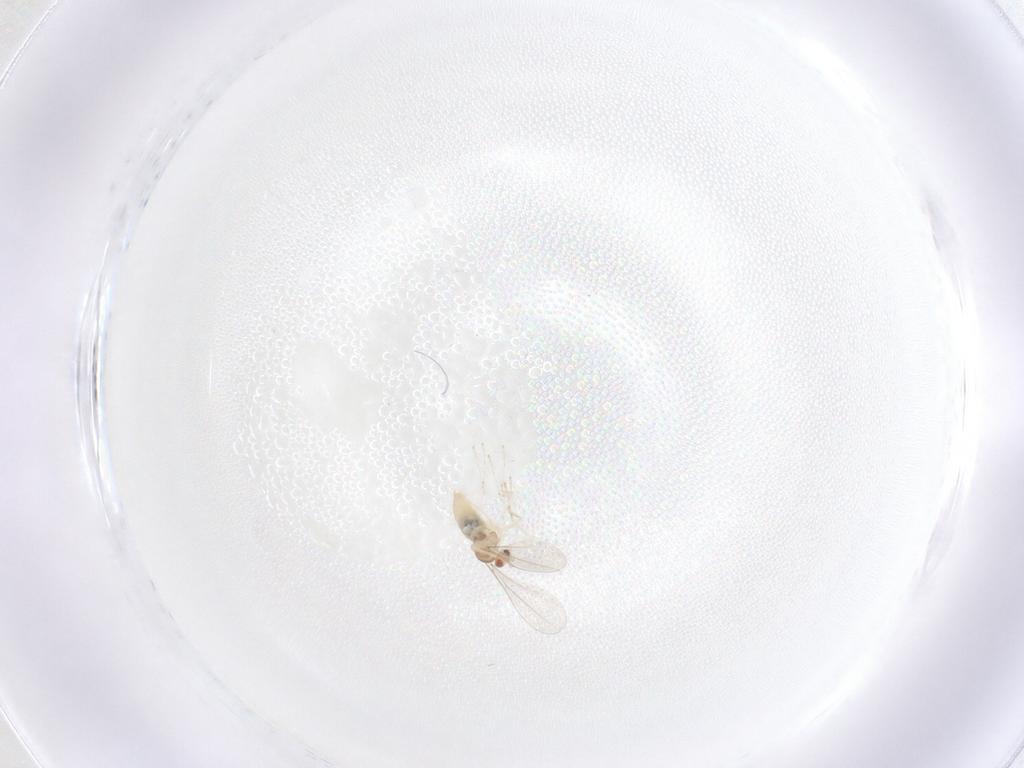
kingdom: Animalia
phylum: Arthropoda
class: Insecta
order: Diptera
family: Cecidomyiidae
